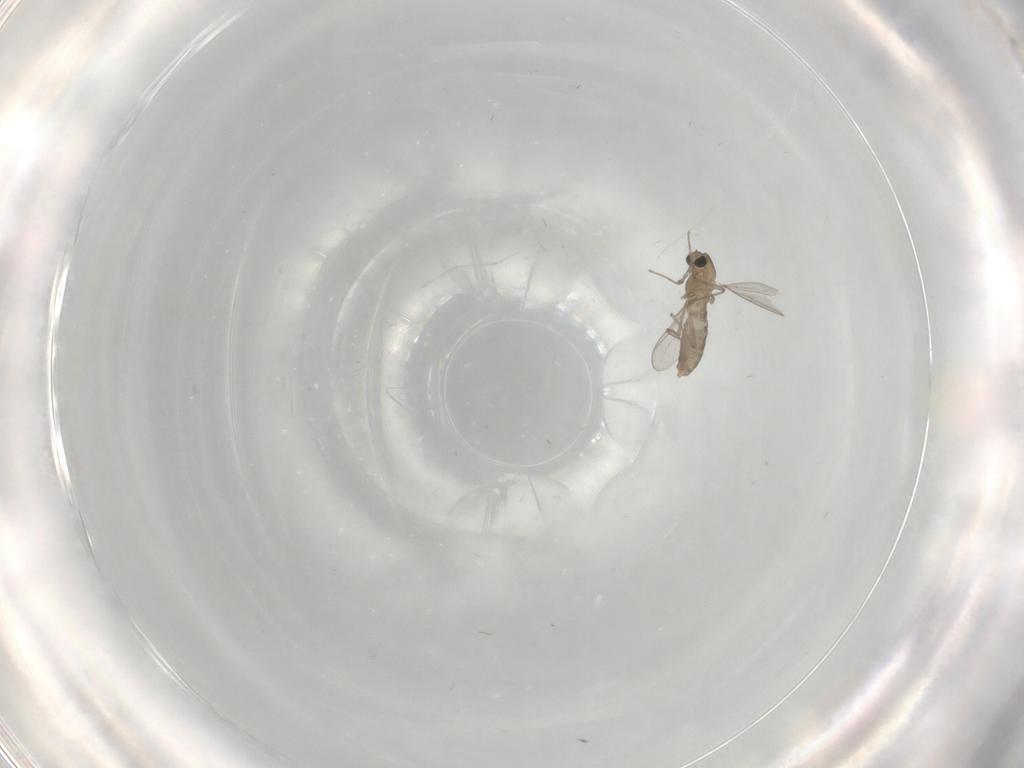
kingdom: Animalia
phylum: Arthropoda
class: Insecta
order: Diptera
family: Chironomidae
